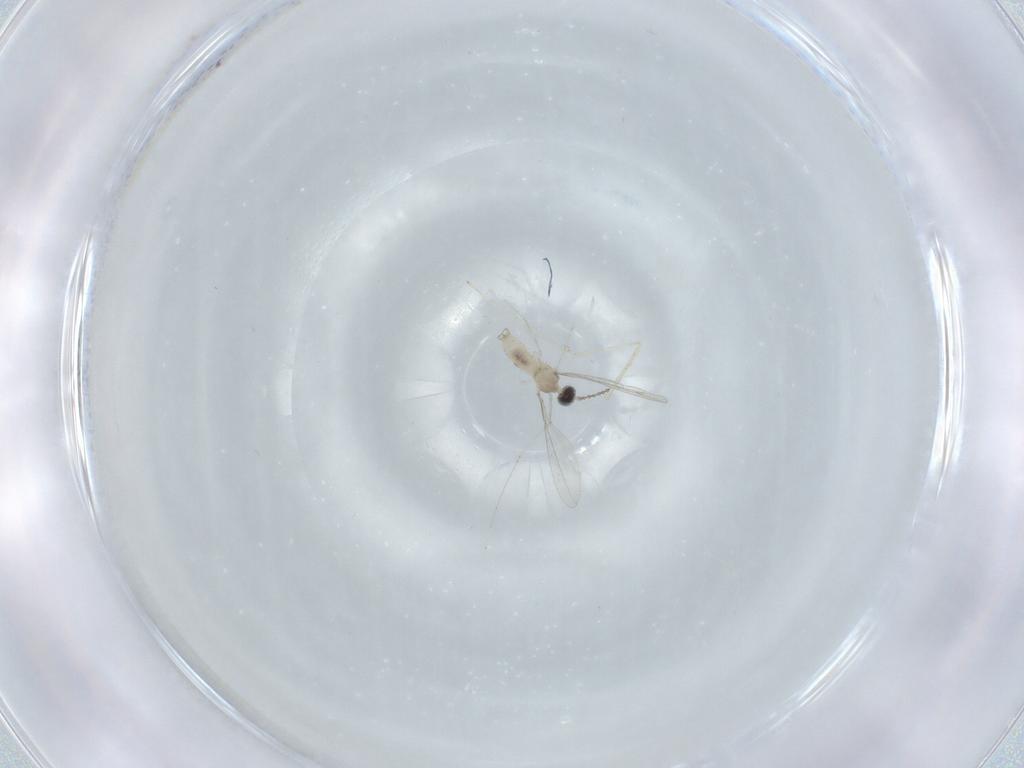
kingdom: Animalia
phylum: Arthropoda
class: Insecta
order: Diptera
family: Cecidomyiidae
